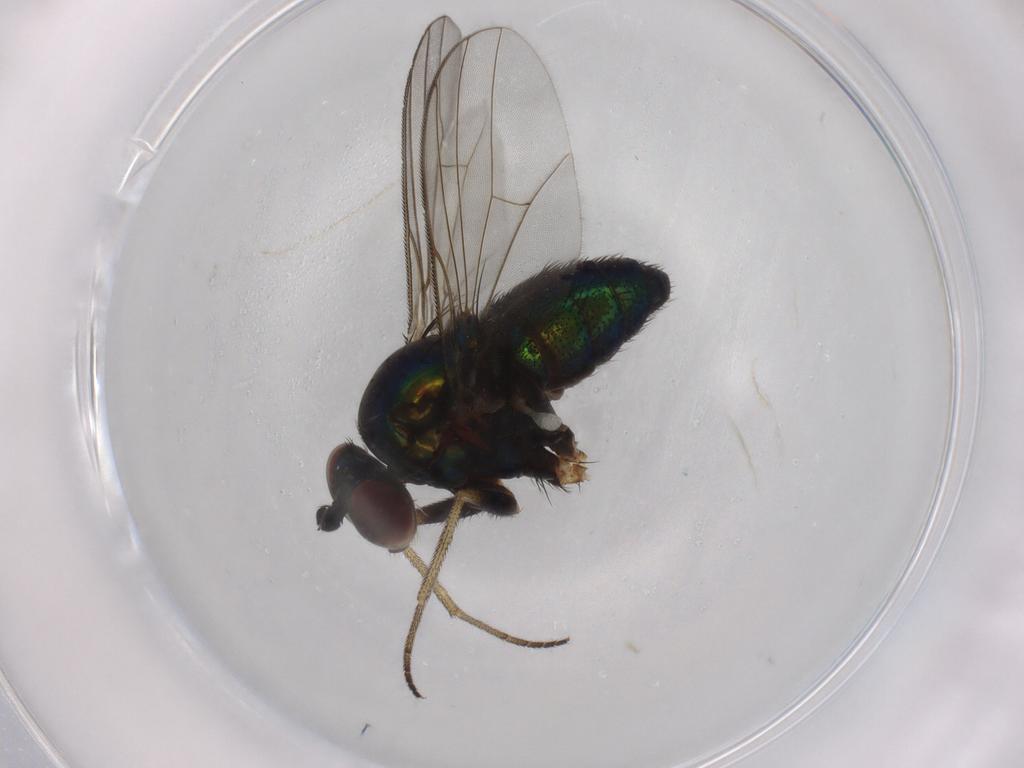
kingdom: Animalia
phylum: Arthropoda
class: Insecta
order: Diptera
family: Dolichopodidae
